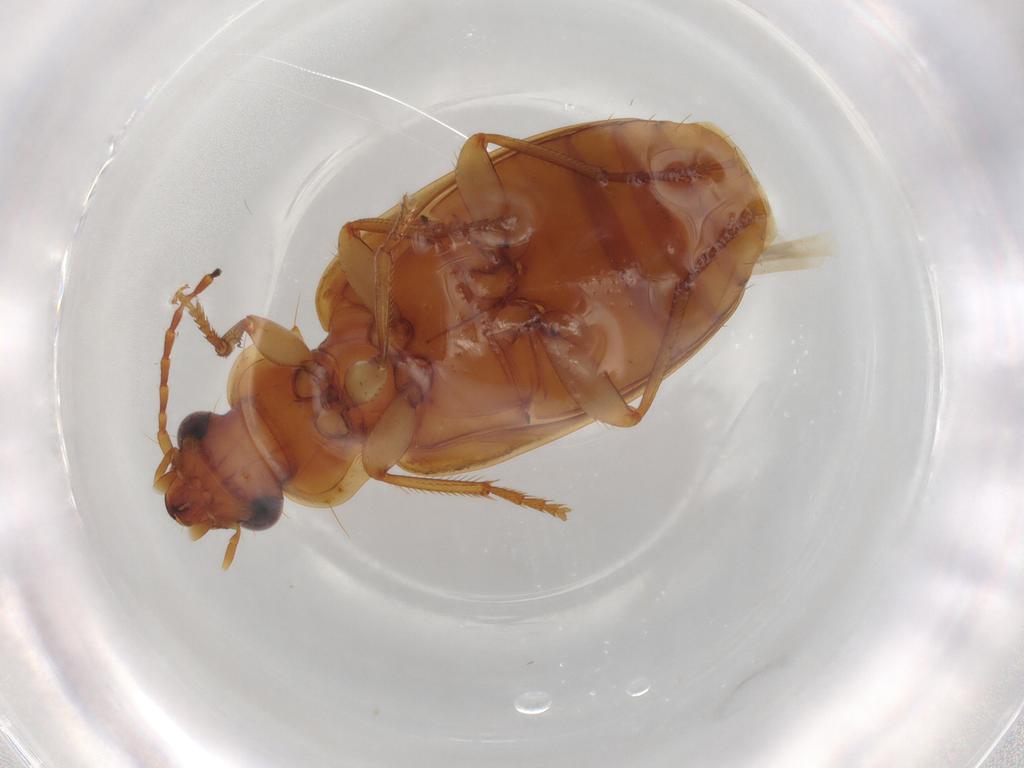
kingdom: Animalia
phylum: Arthropoda
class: Insecta
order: Coleoptera
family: Carabidae
